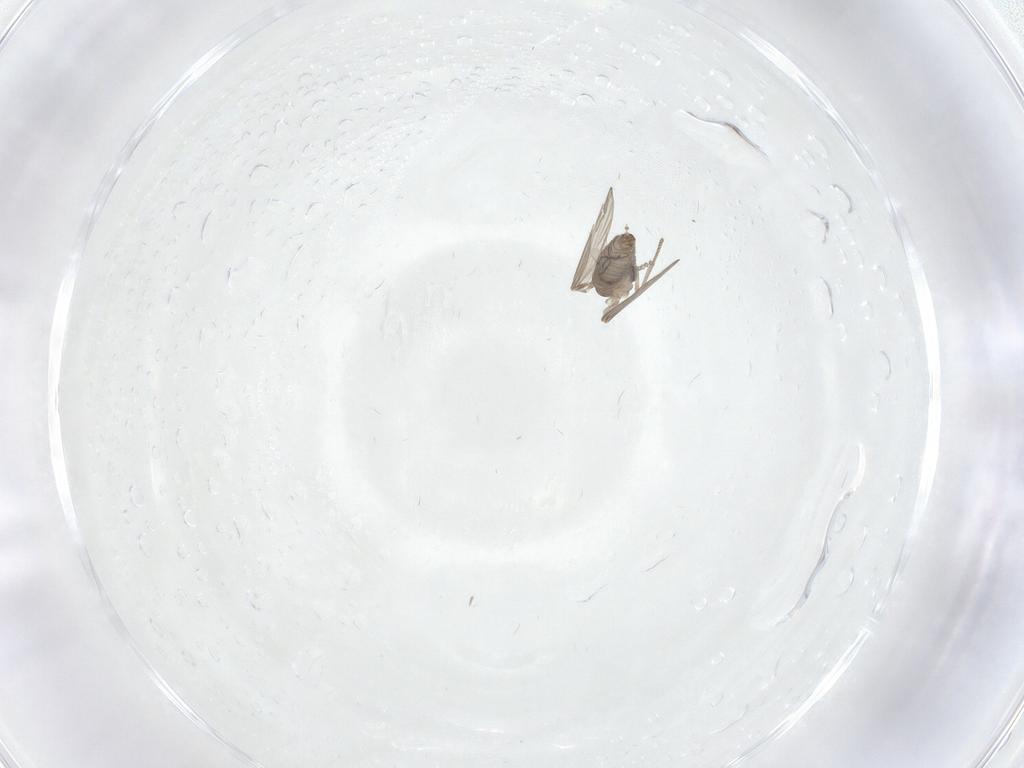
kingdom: Animalia
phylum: Arthropoda
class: Insecta
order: Diptera
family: Psychodidae
